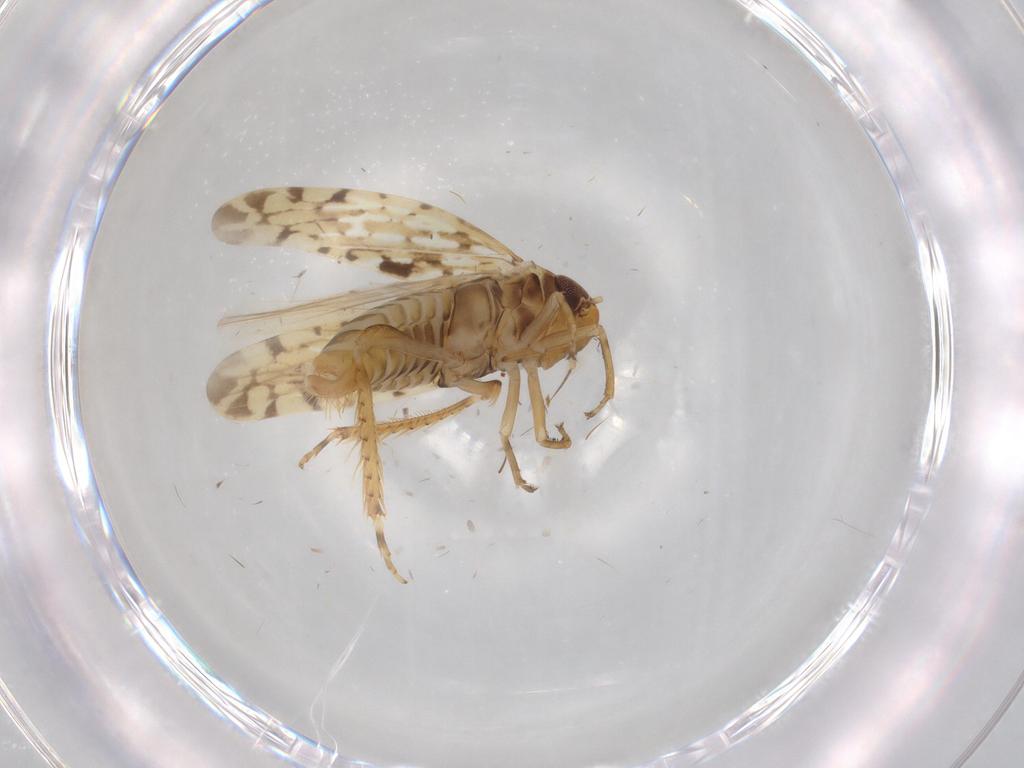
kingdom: Animalia
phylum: Arthropoda
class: Insecta
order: Hemiptera
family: Cicadellidae
